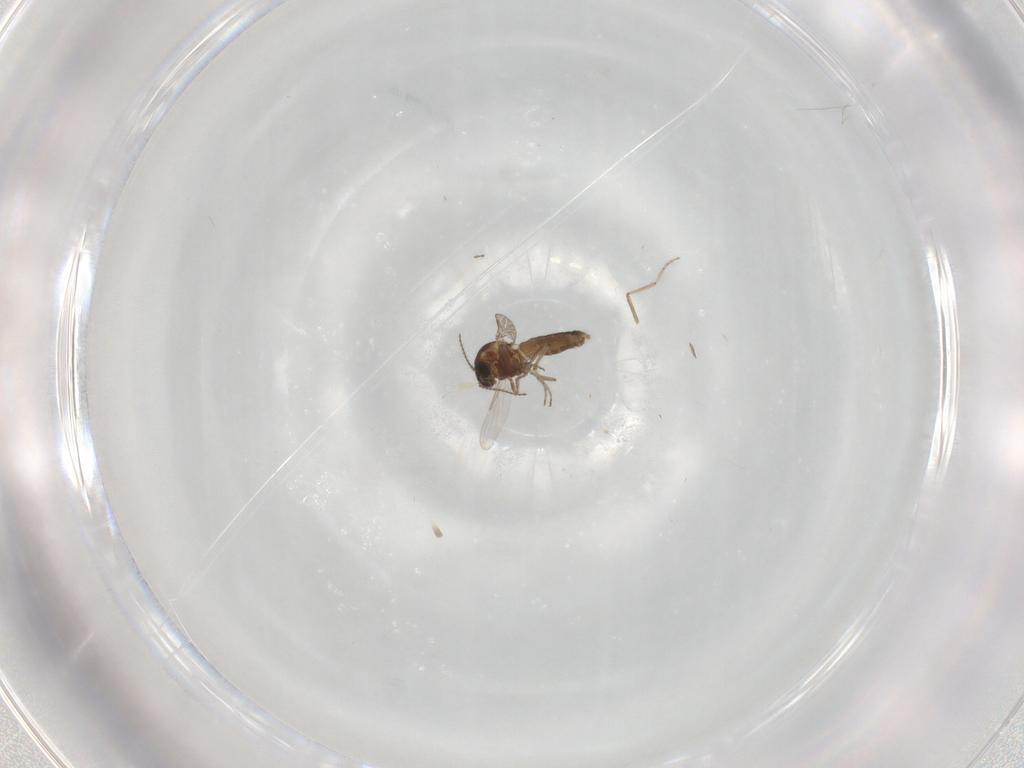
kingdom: Animalia
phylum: Arthropoda
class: Insecta
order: Diptera
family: Ceratopogonidae
